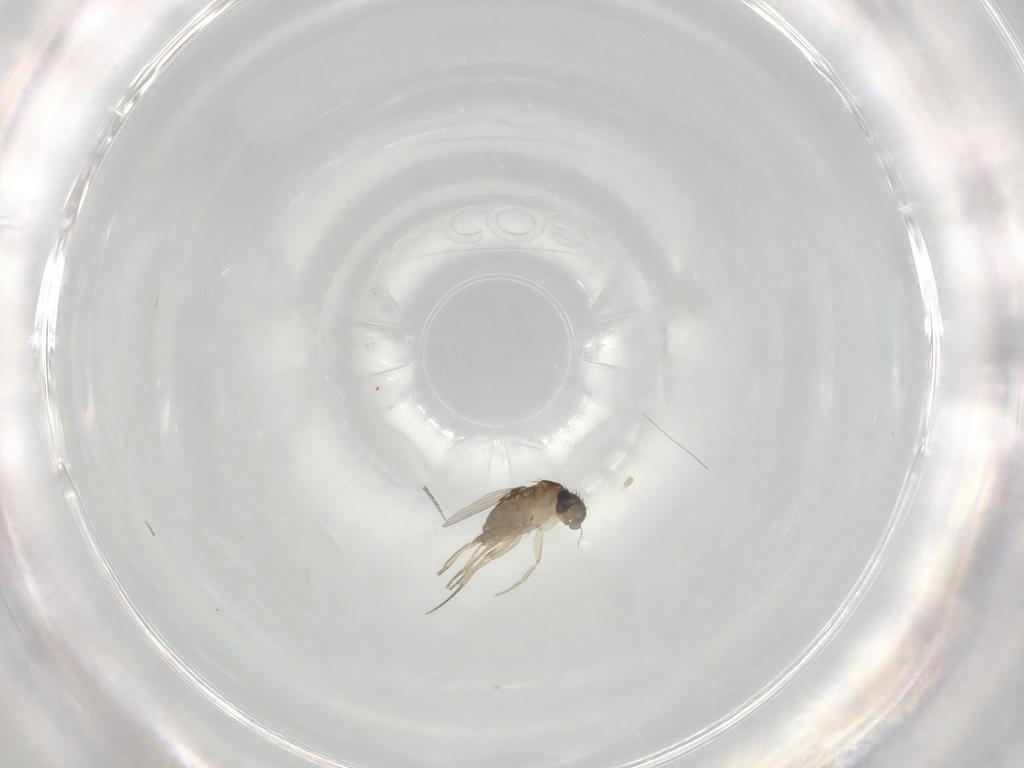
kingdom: Animalia
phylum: Arthropoda
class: Insecta
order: Diptera
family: Phoridae
